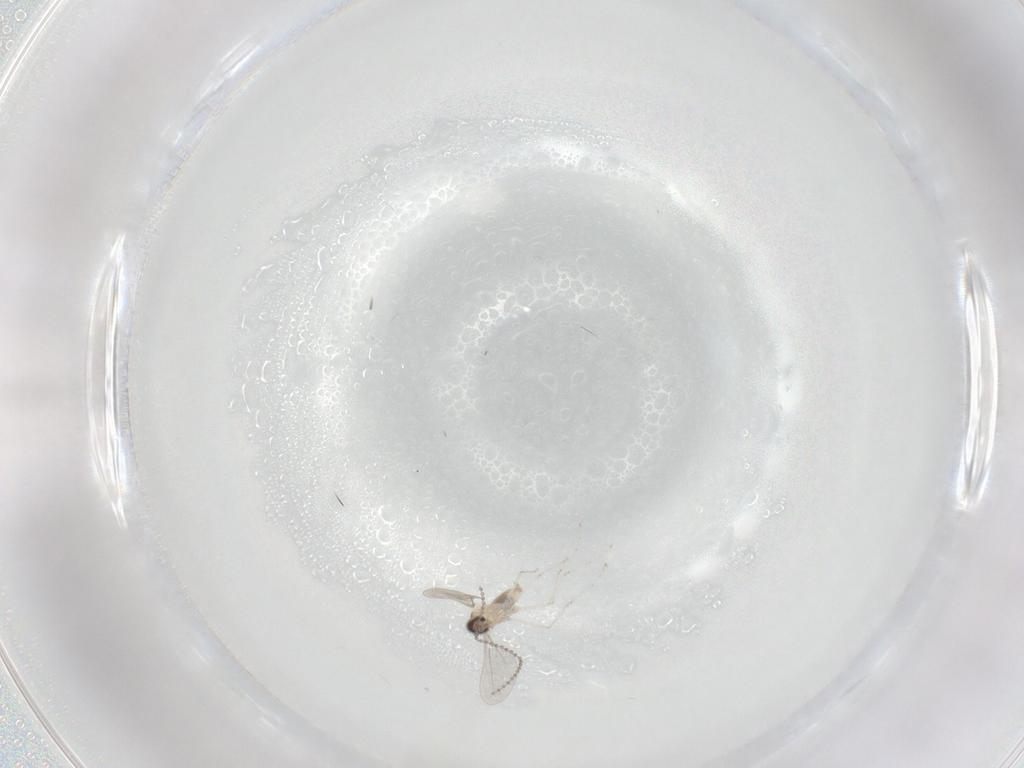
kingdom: Animalia
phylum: Arthropoda
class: Insecta
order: Diptera
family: Cecidomyiidae
